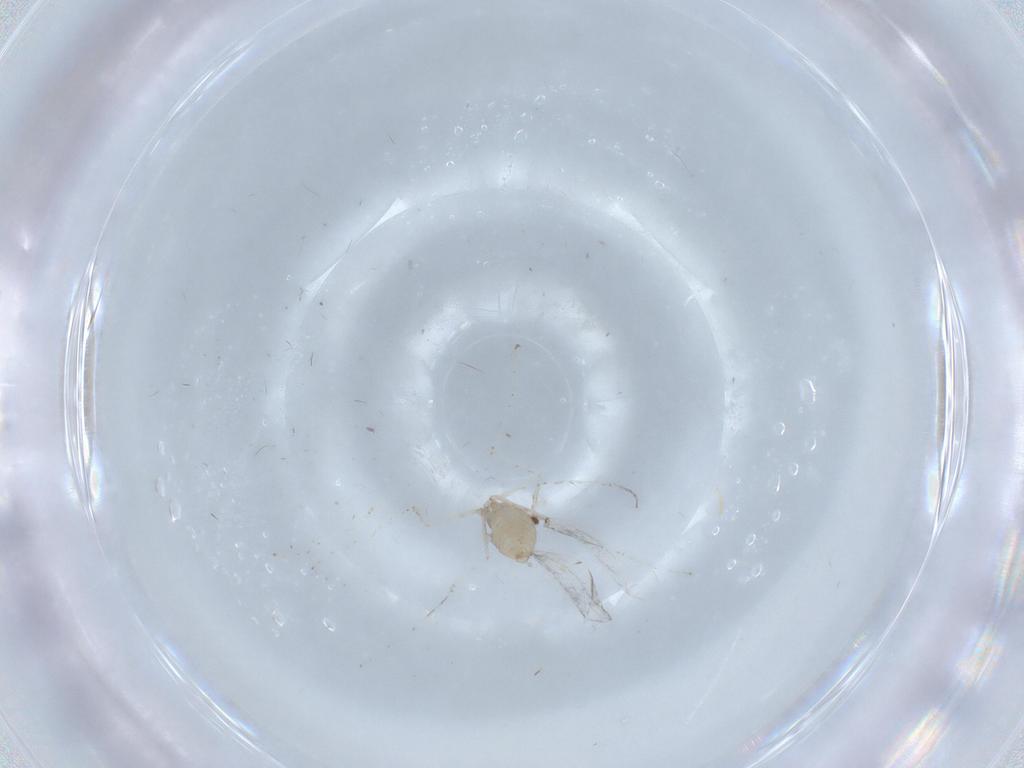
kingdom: Animalia
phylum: Arthropoda
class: Insecta
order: Diptera
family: Cecidomyiidae
